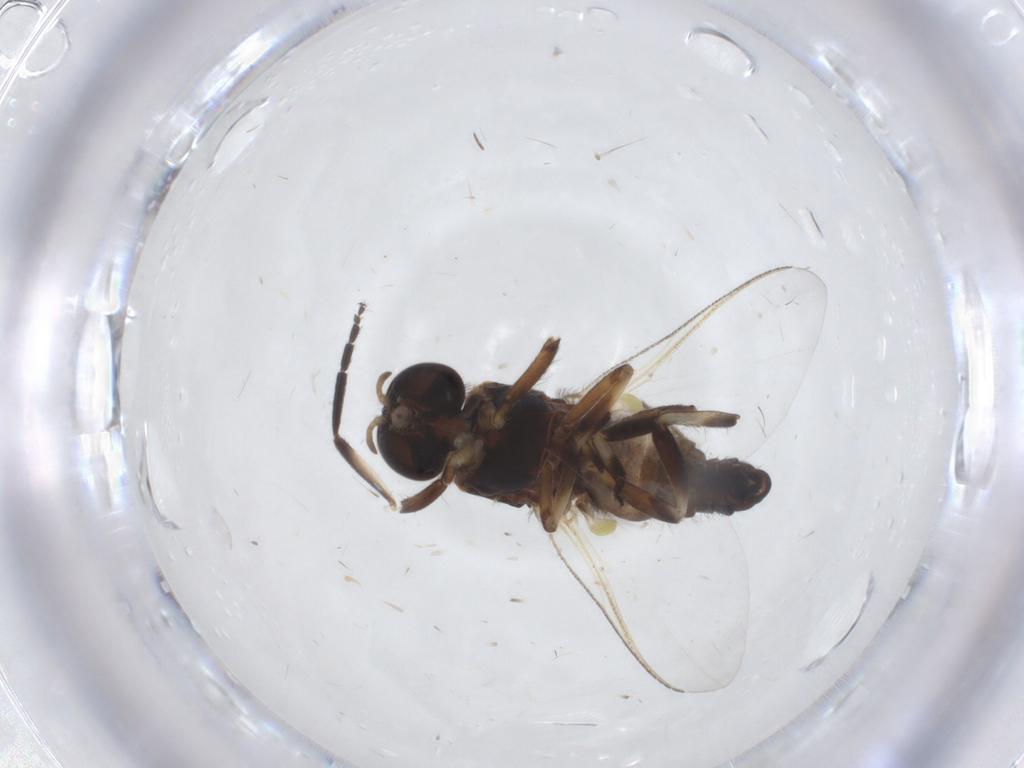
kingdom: Animalia
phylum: Arthropoda
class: Insecta
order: Diptera
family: Simuliidae
